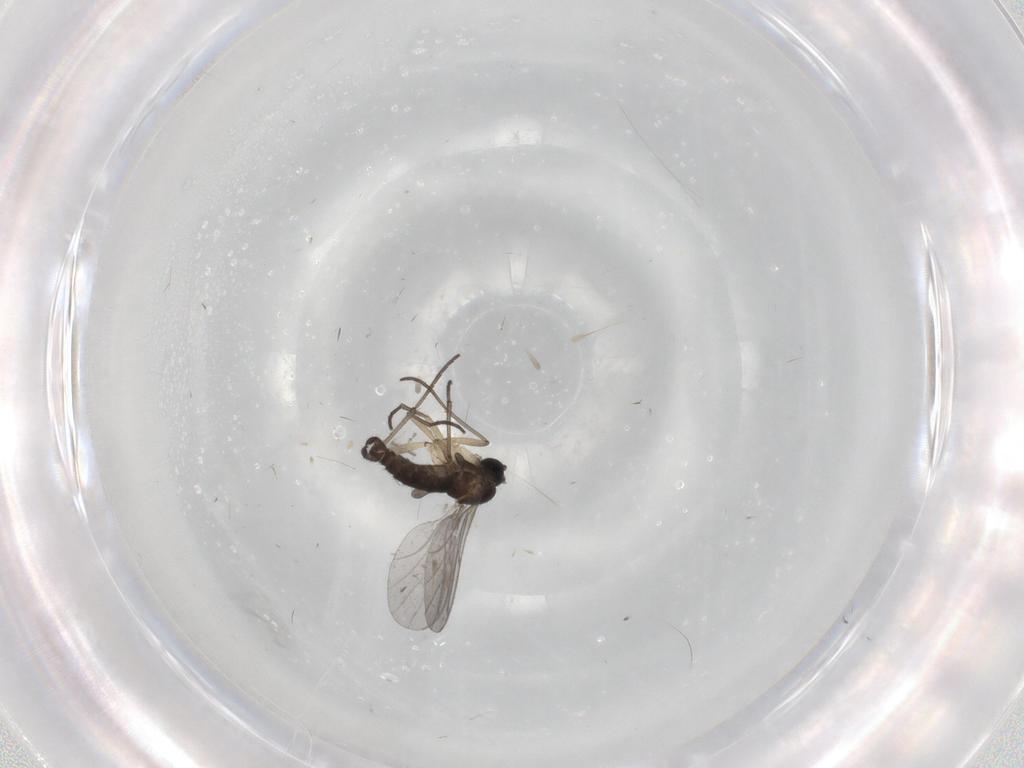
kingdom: Animalia
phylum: Arthropoda
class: Insecta
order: Diptera
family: Sciaridae
